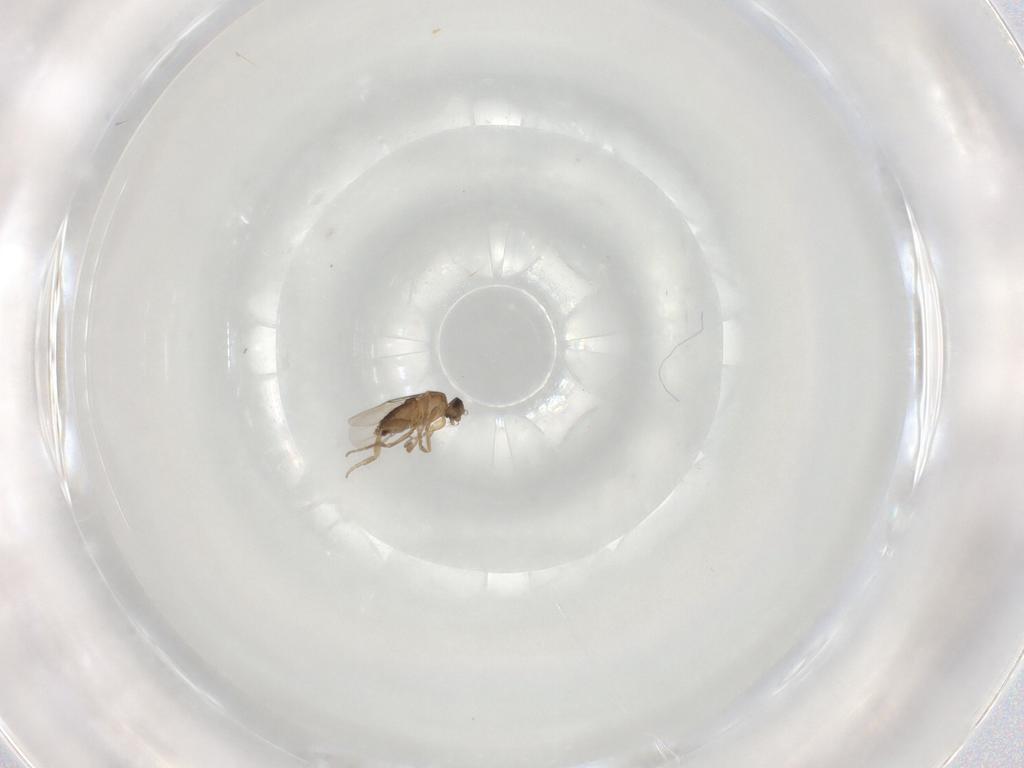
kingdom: Animalia
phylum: Arthropoda
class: Insecta
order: Diptera
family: Phoridae
